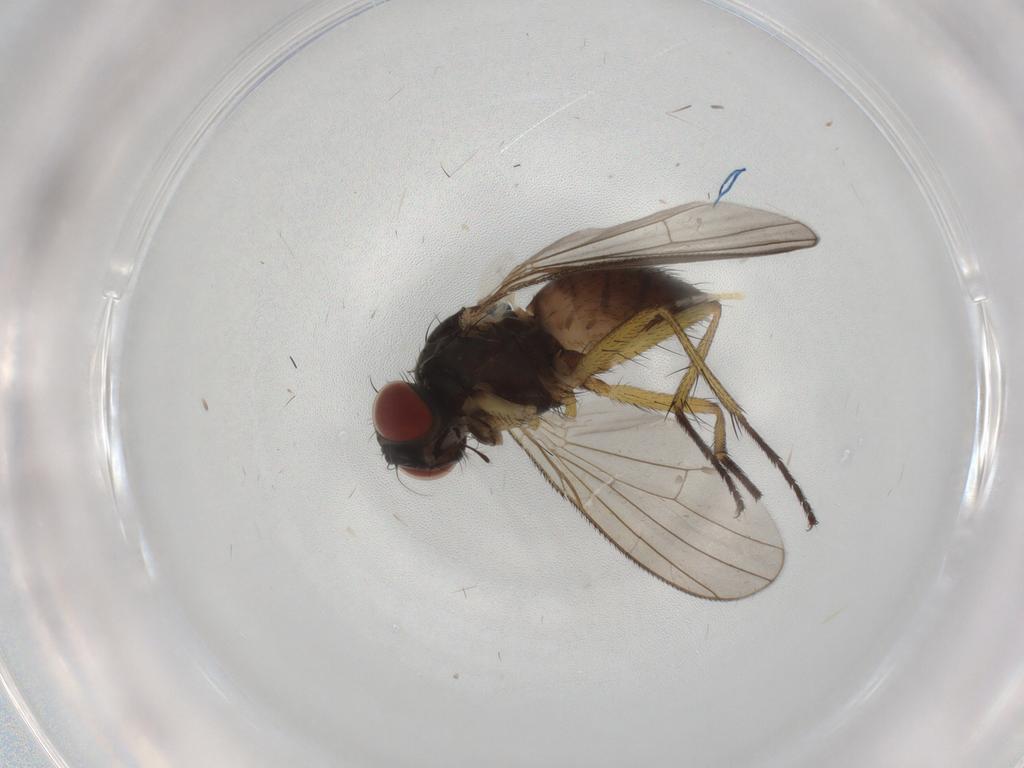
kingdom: Animalia
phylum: Arthropoda
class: Insecta
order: Diptera
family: Muscidae
